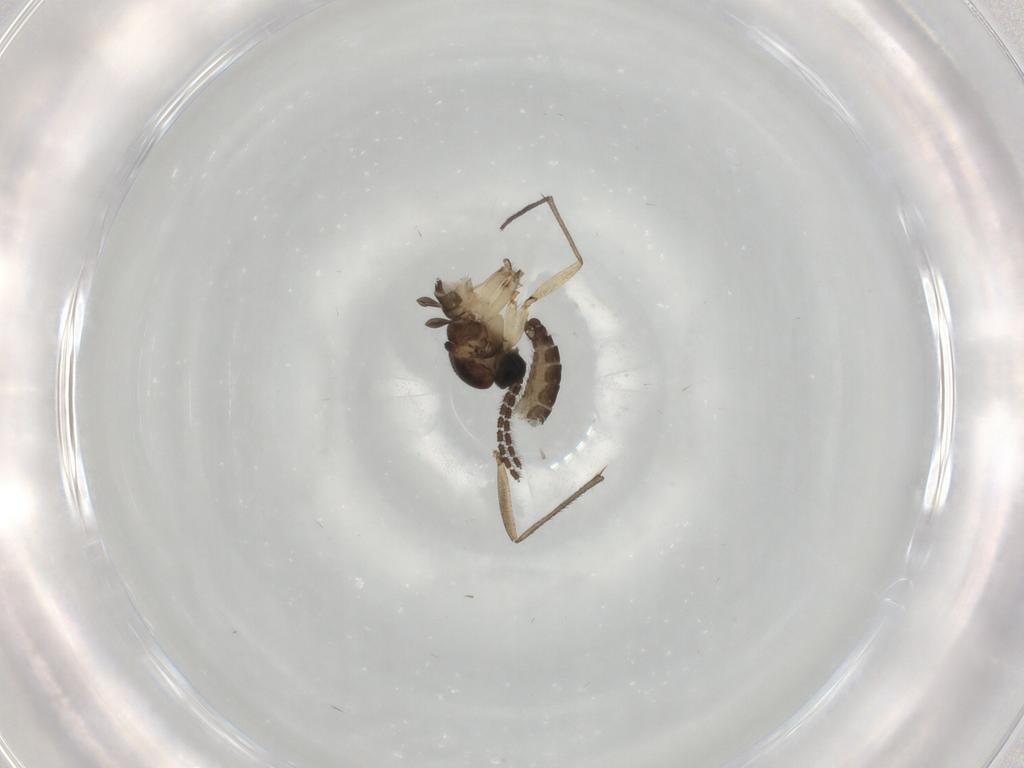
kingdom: Animalia
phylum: Arthropoda
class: Insecta
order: Diptera
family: Sciaridae
